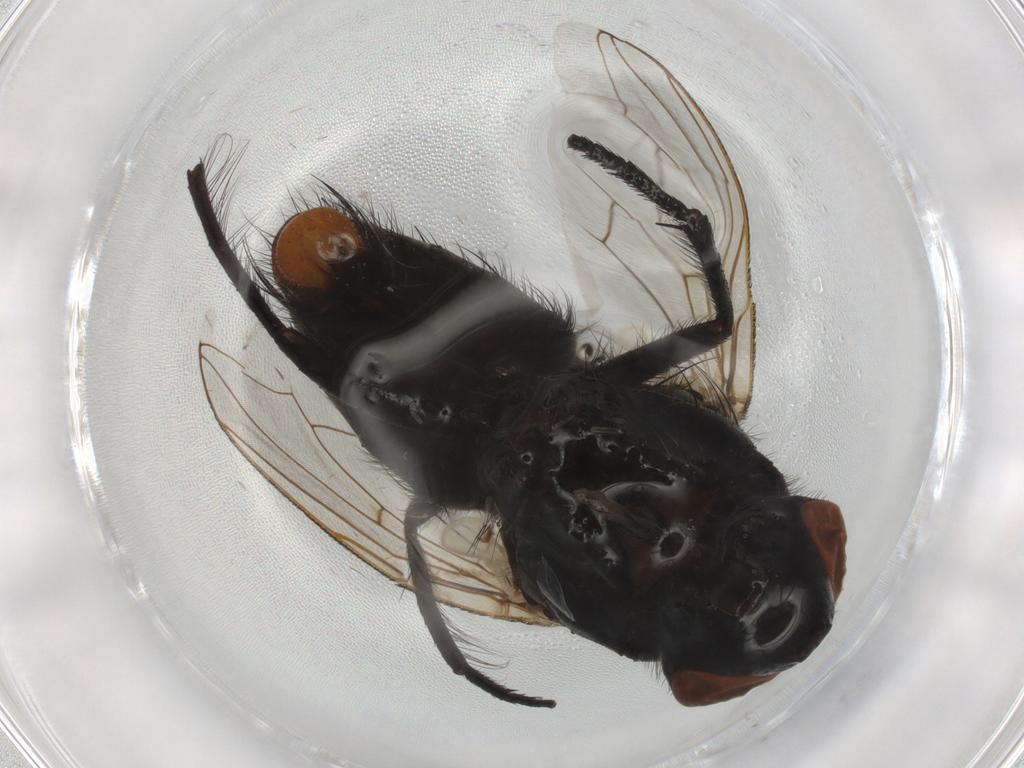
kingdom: Animalia
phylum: Arthropoda
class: Insecta
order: Diptera
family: Sarcophagidae
